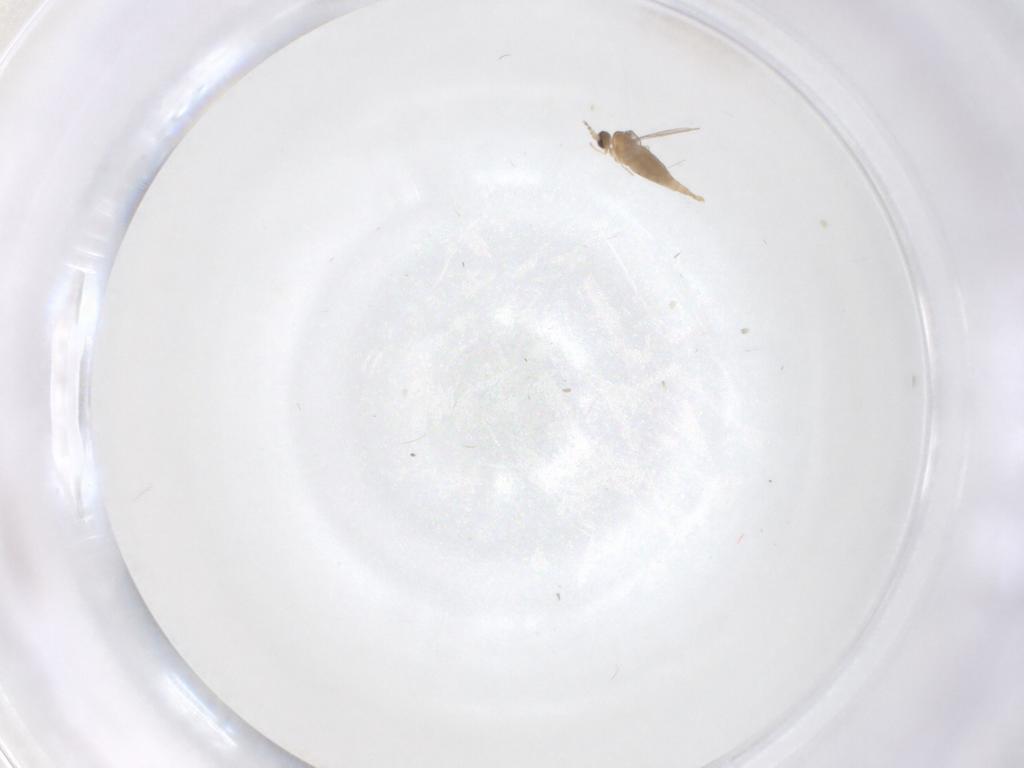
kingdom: Animalia
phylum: Arthropoda
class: Insecta
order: Diptera
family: Cecidomyiidae
